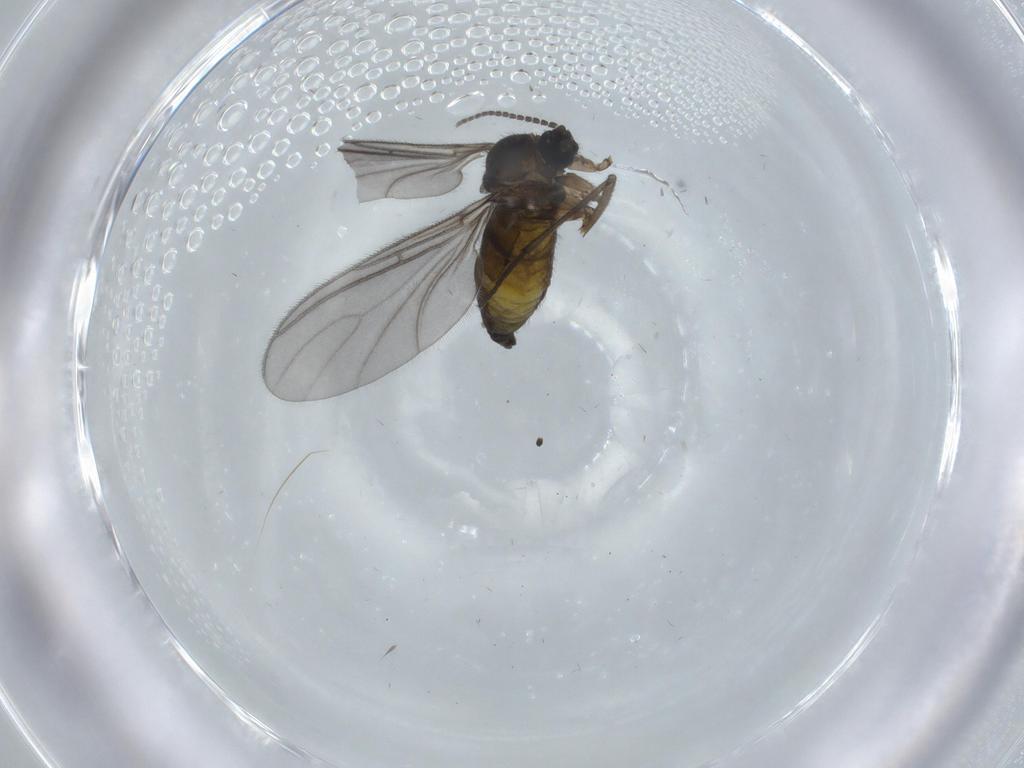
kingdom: Animalia
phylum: Arthropoda
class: Insecta
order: Diptera
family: Sciaridae
